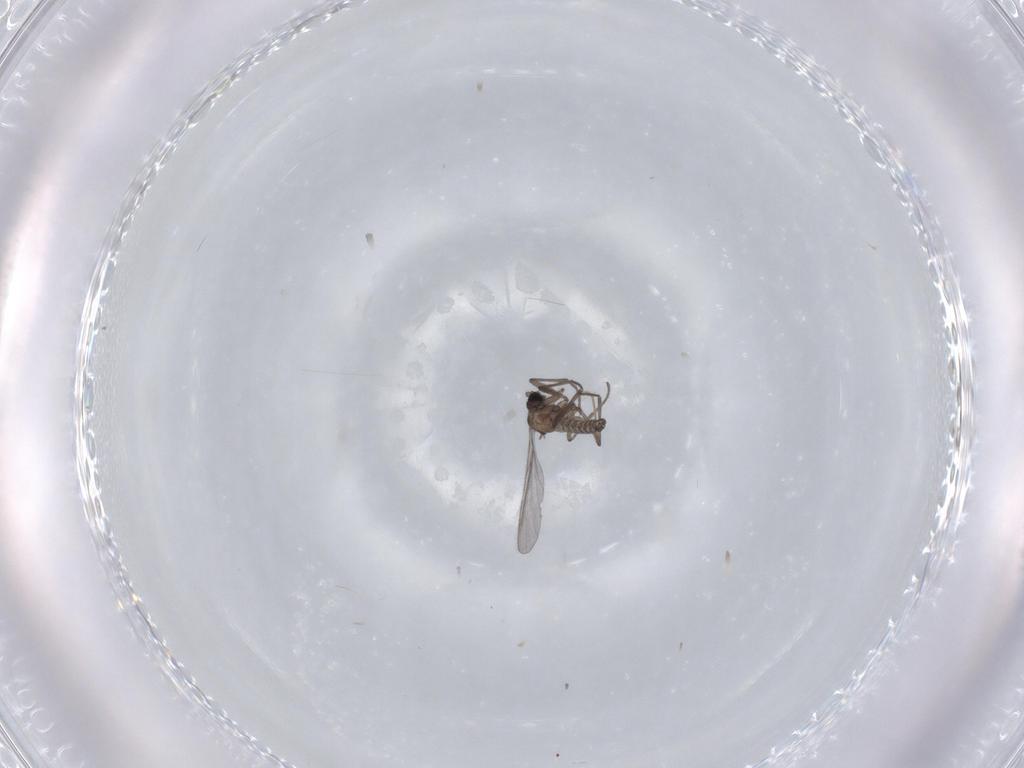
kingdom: Animalia
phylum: Arthropoda
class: Insecta
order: Diptera
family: Sciaridae
